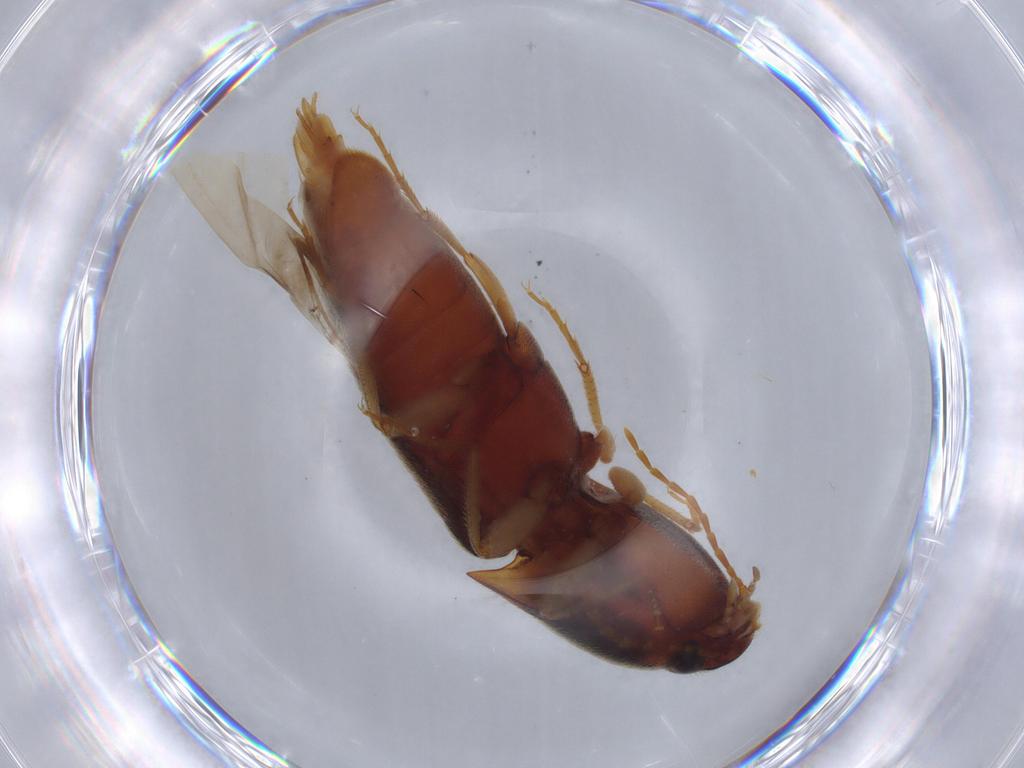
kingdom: Animalia
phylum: Arthropoda
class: Insecta
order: Coleoptera
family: Elateridae
